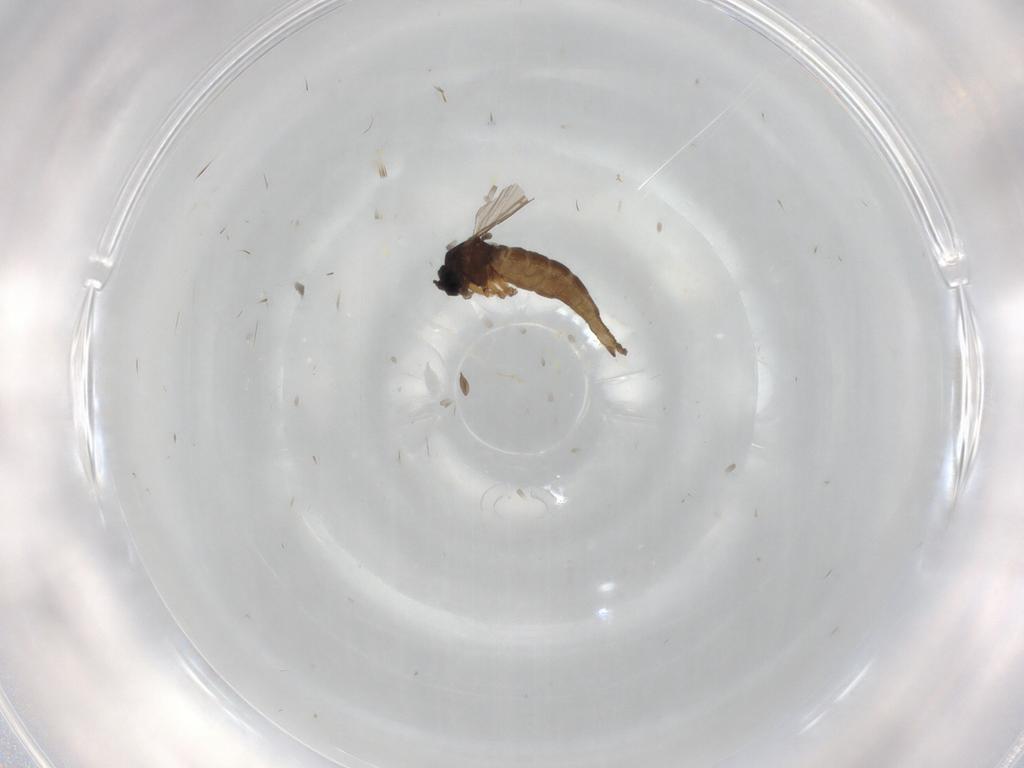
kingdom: Animalia
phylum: Arthropoda
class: Insecta
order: Diptera
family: Sciaridae
